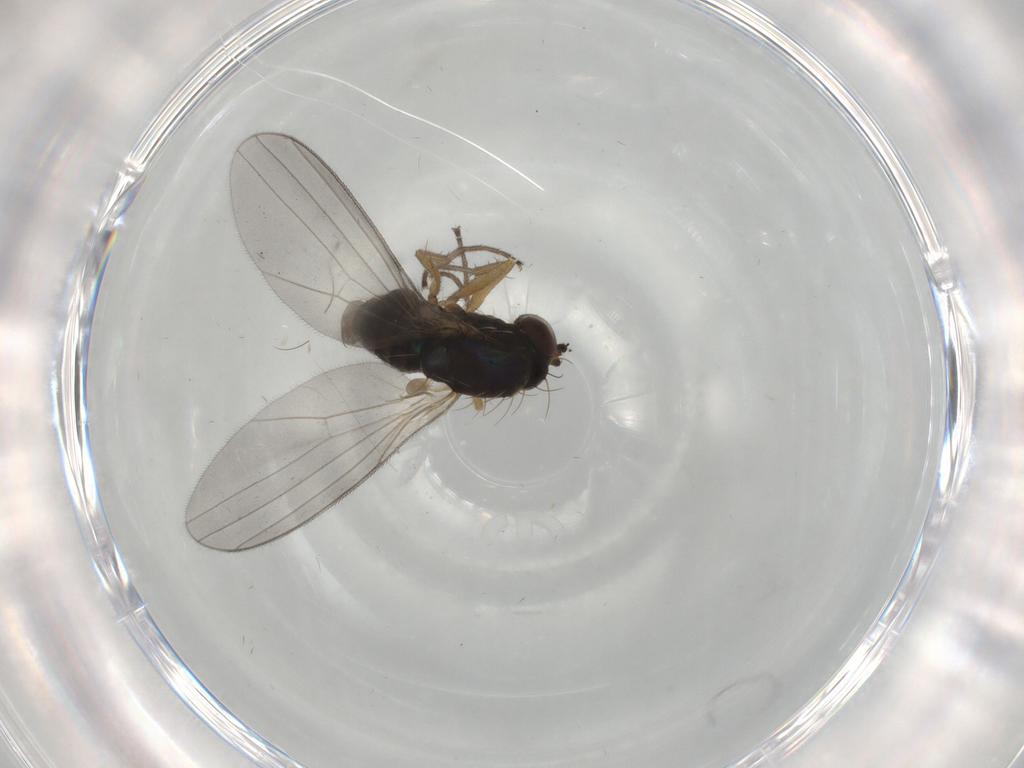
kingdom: Animalia
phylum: Arthropoda
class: Insecta
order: Diptera
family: Dolichopodidae
